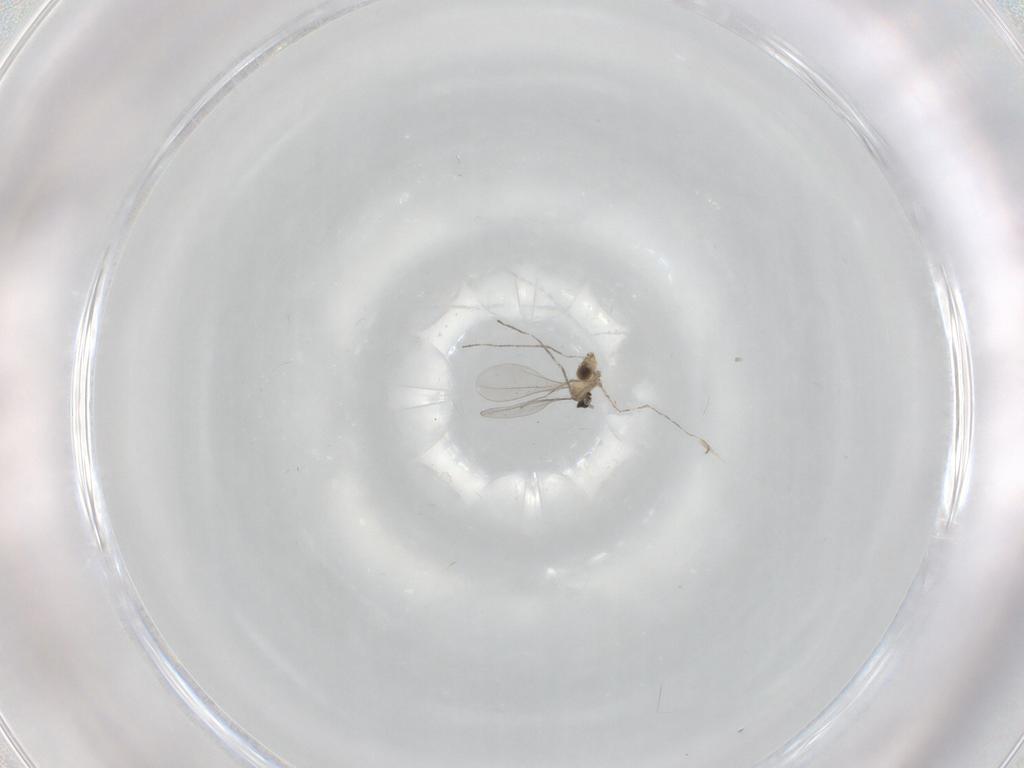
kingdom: Animalia
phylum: Arthropoda
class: Insecta
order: Diptera
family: Cecidomyiidae
